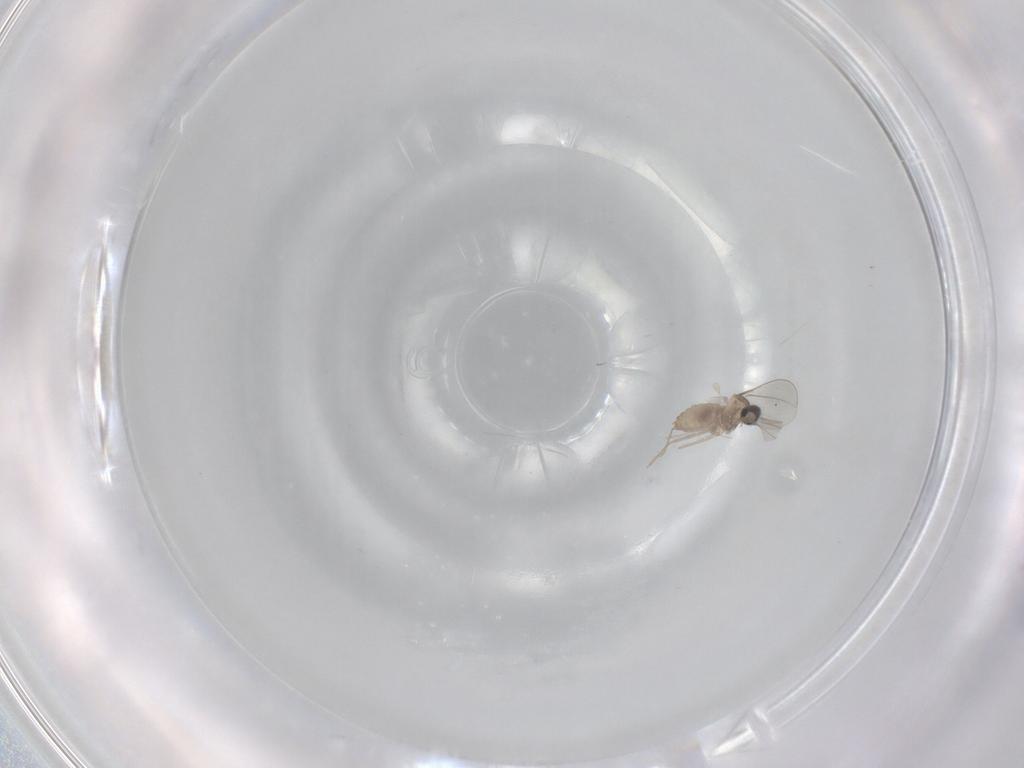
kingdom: Animalia
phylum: Arthropoda
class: Insecta
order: Diptera
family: Cecidomyiidae
